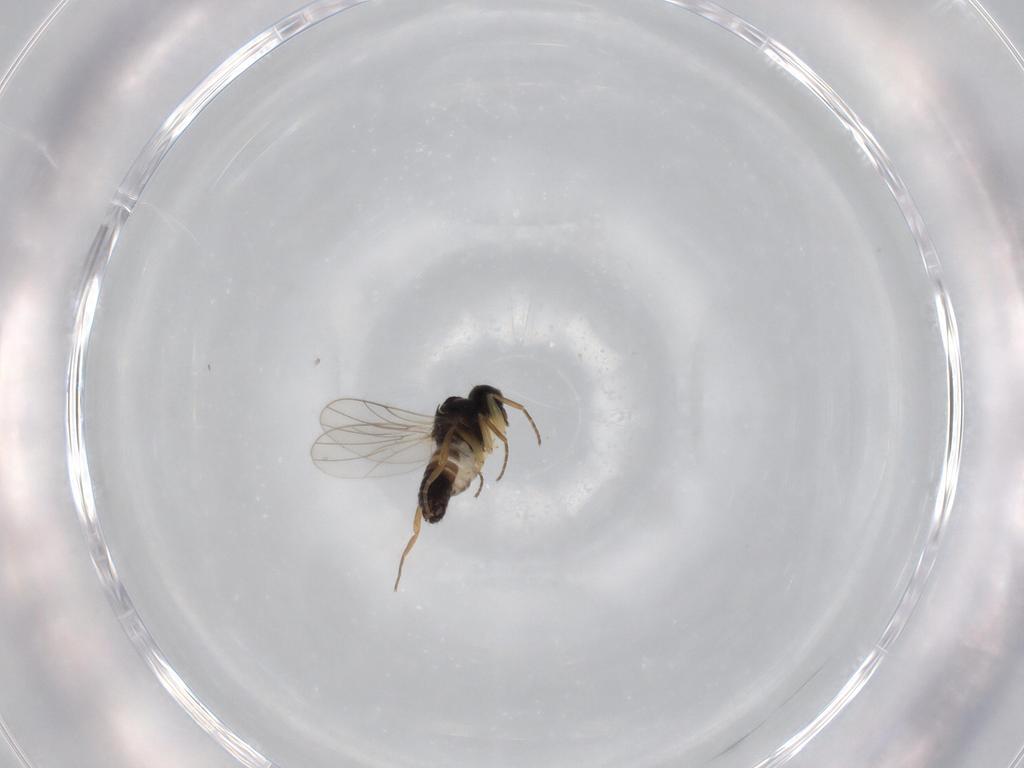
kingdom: Animalia
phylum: Arthropoda
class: Insecta
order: Diptera
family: Hybotidae
